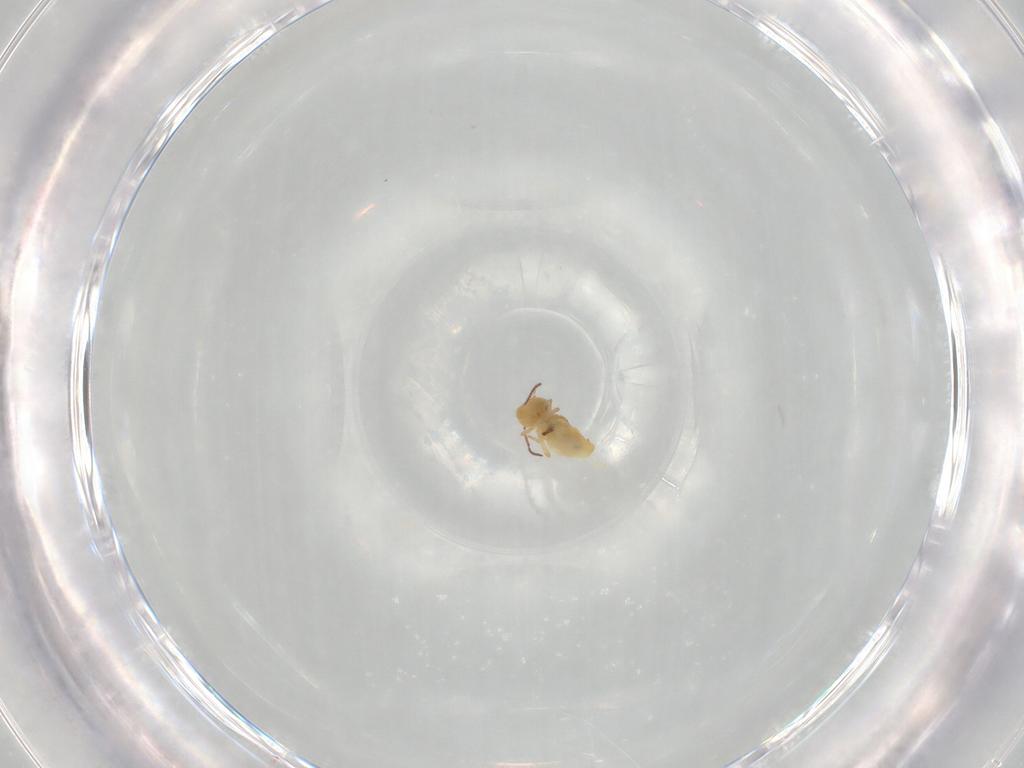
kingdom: Animalia
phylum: Arthropoda
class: Collembola
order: Symphypleona
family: Bourletiellidae
